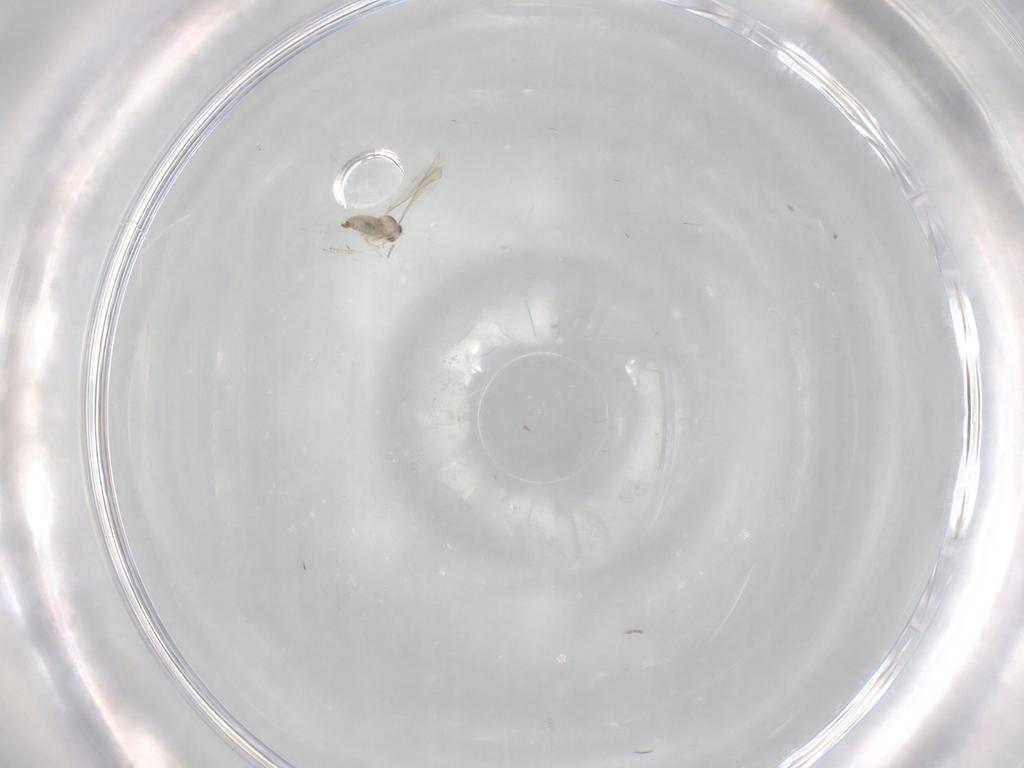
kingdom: Animalia
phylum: Arthropoda
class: Insecta
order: Diptera
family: Cecidomyiidae
